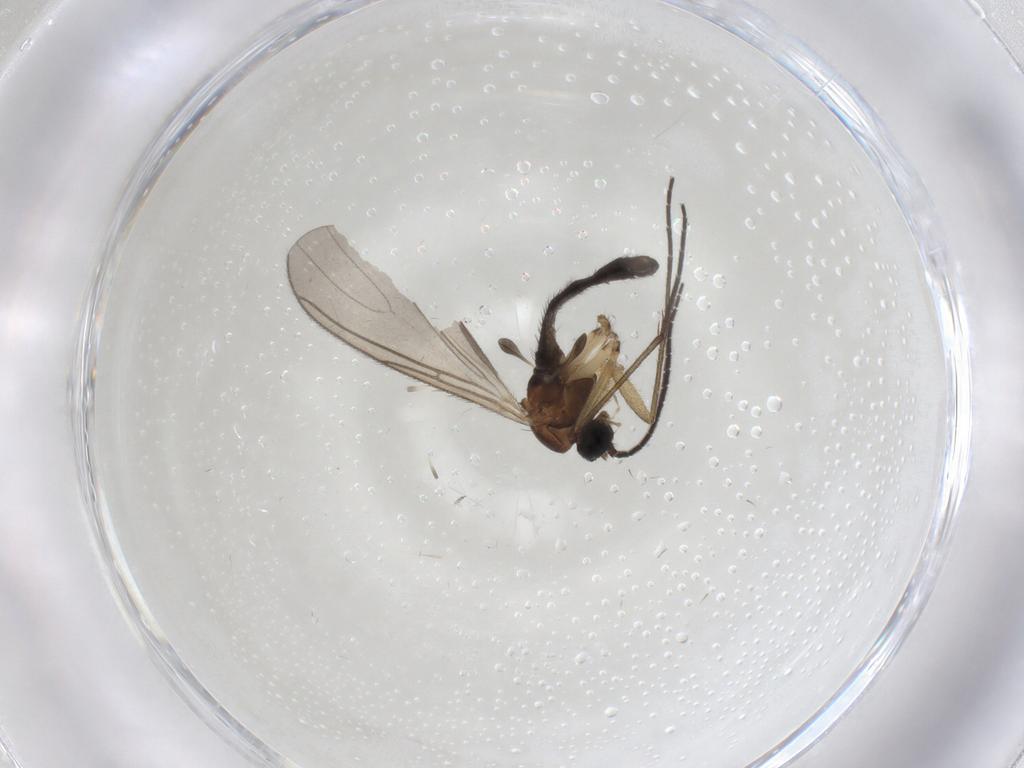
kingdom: Animalia
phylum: Arthropoda
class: Insecta
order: Diptera
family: Sciaridae
